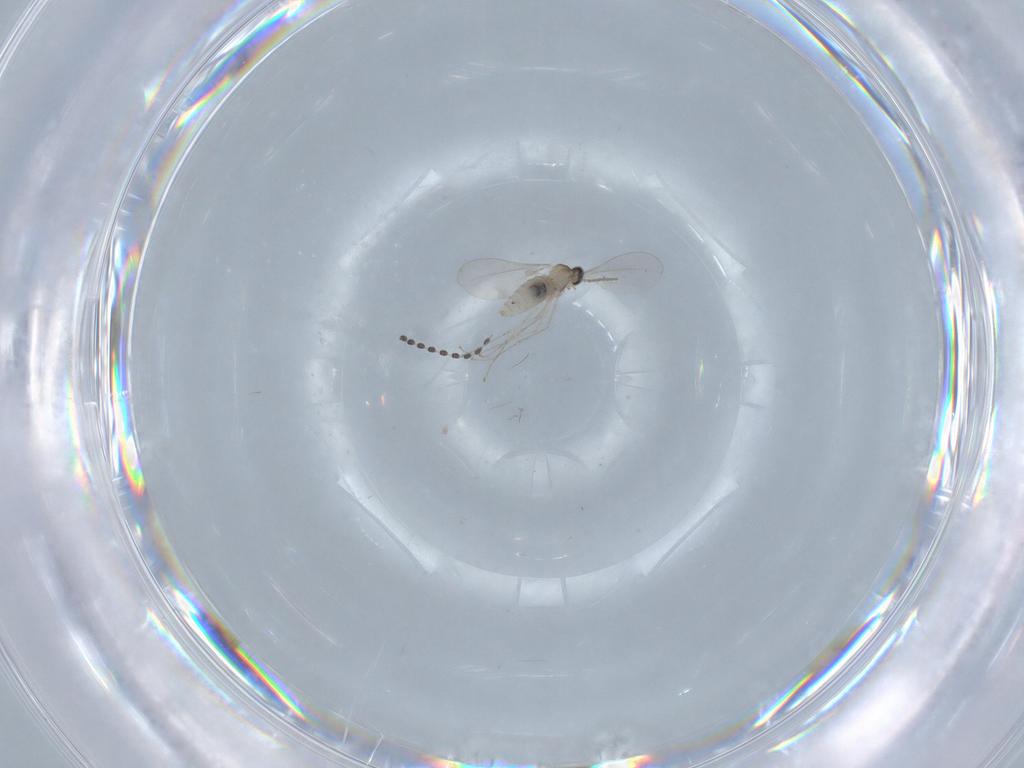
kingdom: Animalia
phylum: Arthropoda
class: Insecta
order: Diptera
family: Cecidomyiidae
